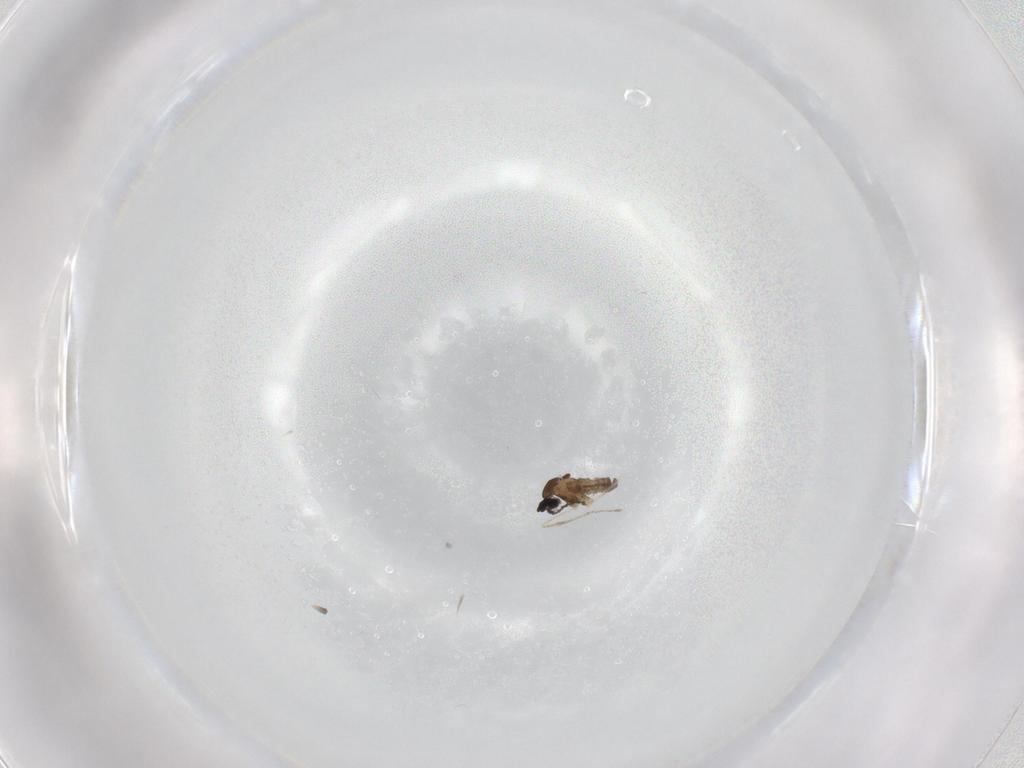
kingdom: Animalia
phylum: Arthropoda
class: Insecta
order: Diptera
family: Cecidomyiidae
